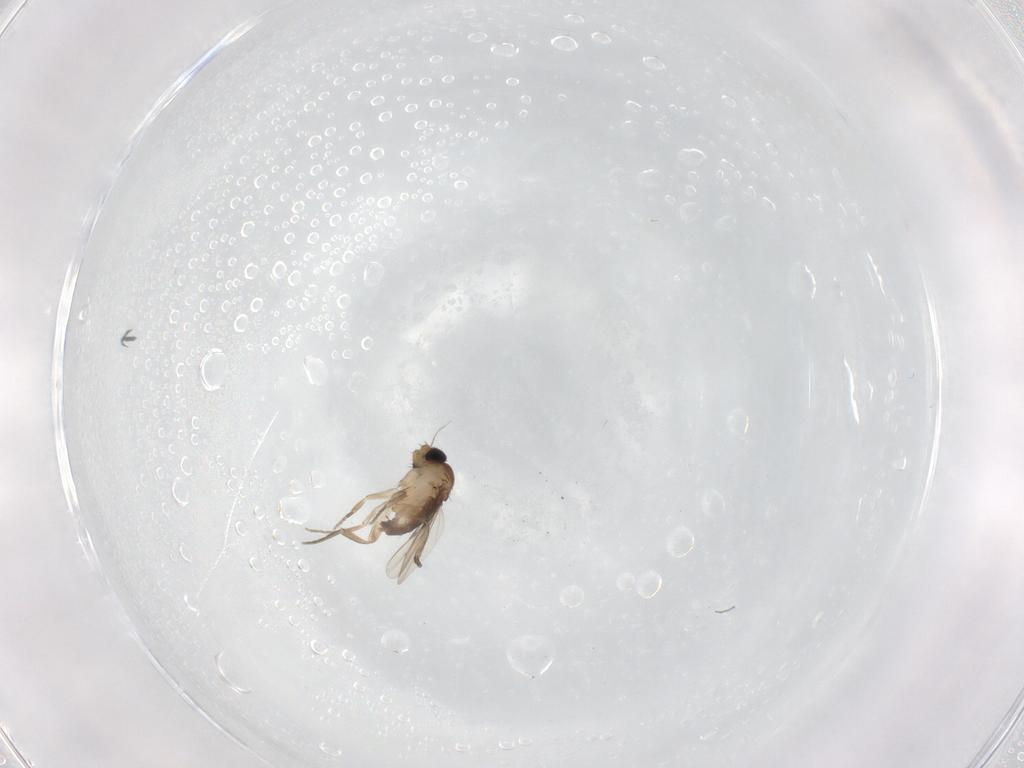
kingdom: Animalia
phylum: Arthropoda
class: Insecta
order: Diptera
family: Phoridae
